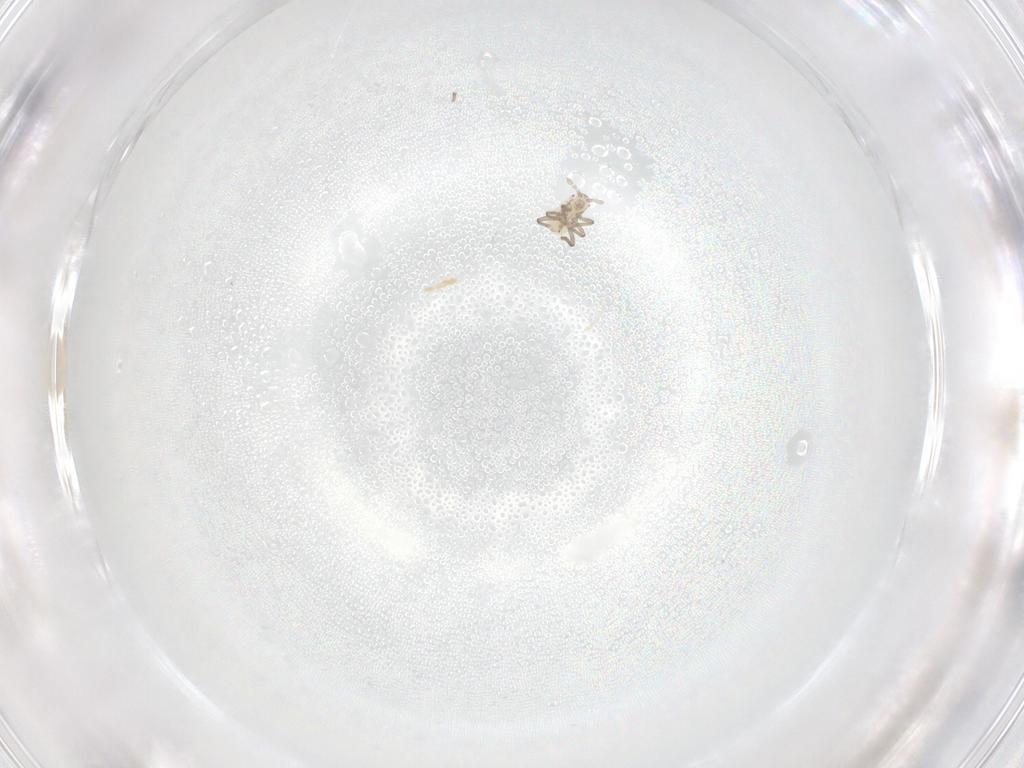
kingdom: Animalia
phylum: Arthropoda
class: Insecta
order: Hemiptera
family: Aphididae
